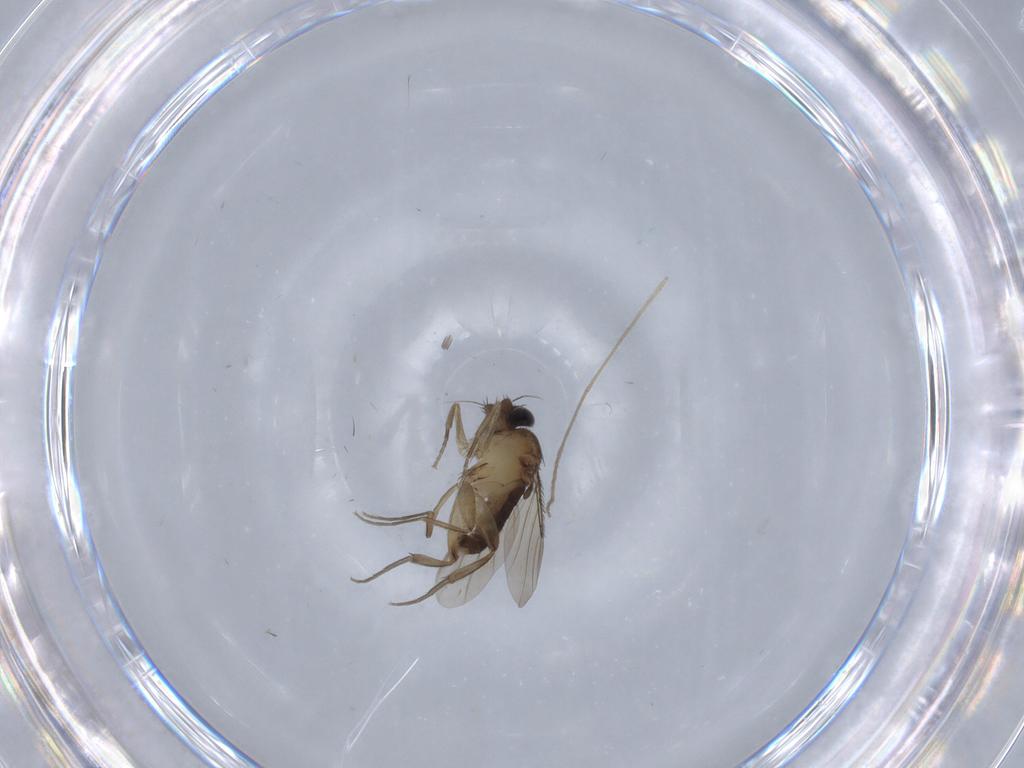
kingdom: Animalia
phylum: Arthropoda
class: Insecta
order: Diptera
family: Phoridae
